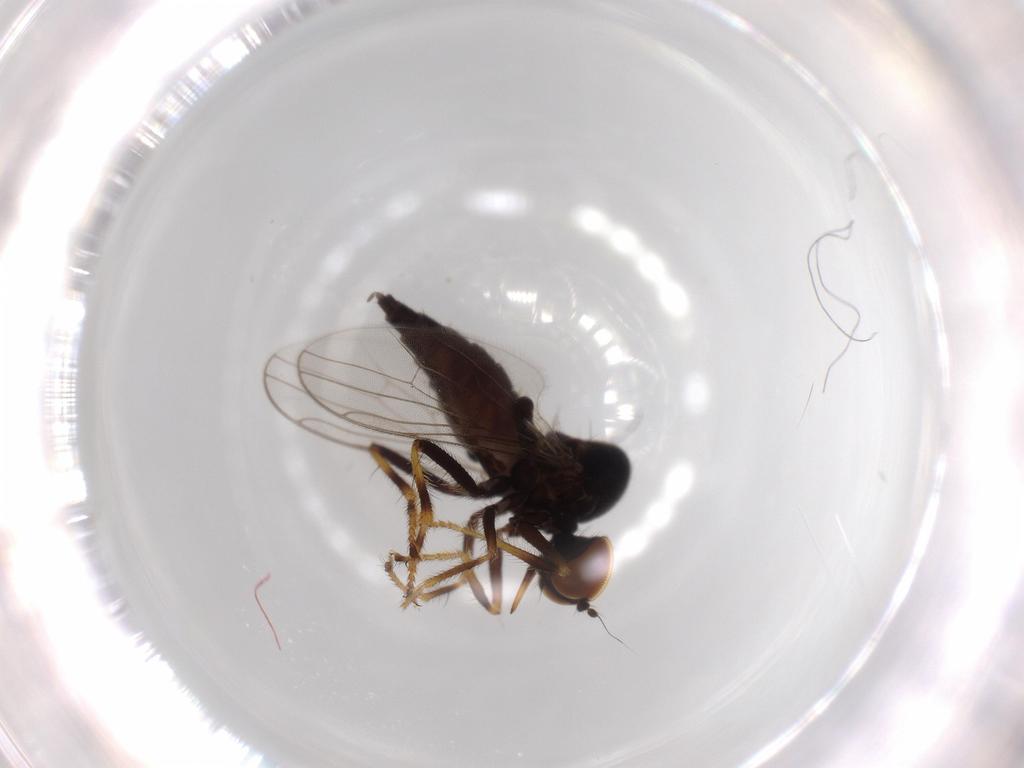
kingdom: Animalia
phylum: Arthropoda
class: Insecta
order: Diptera
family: Hybotidae
